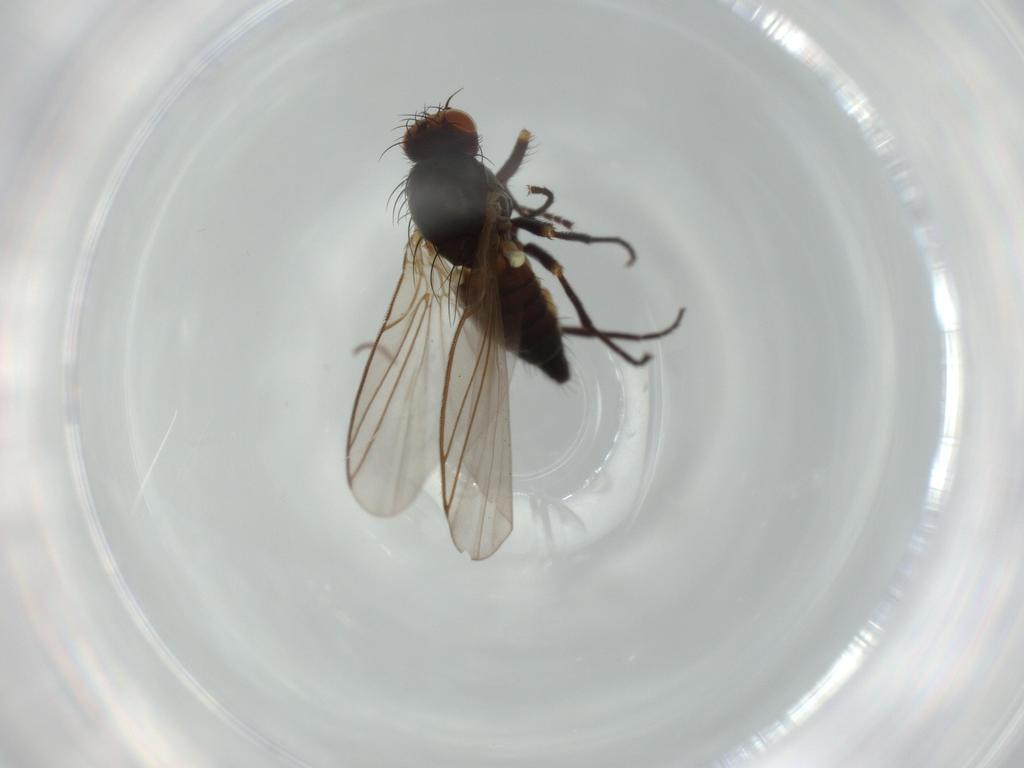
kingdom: Animalia
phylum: Arthropoda
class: Insecta
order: Diptera
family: Agromyzidae
